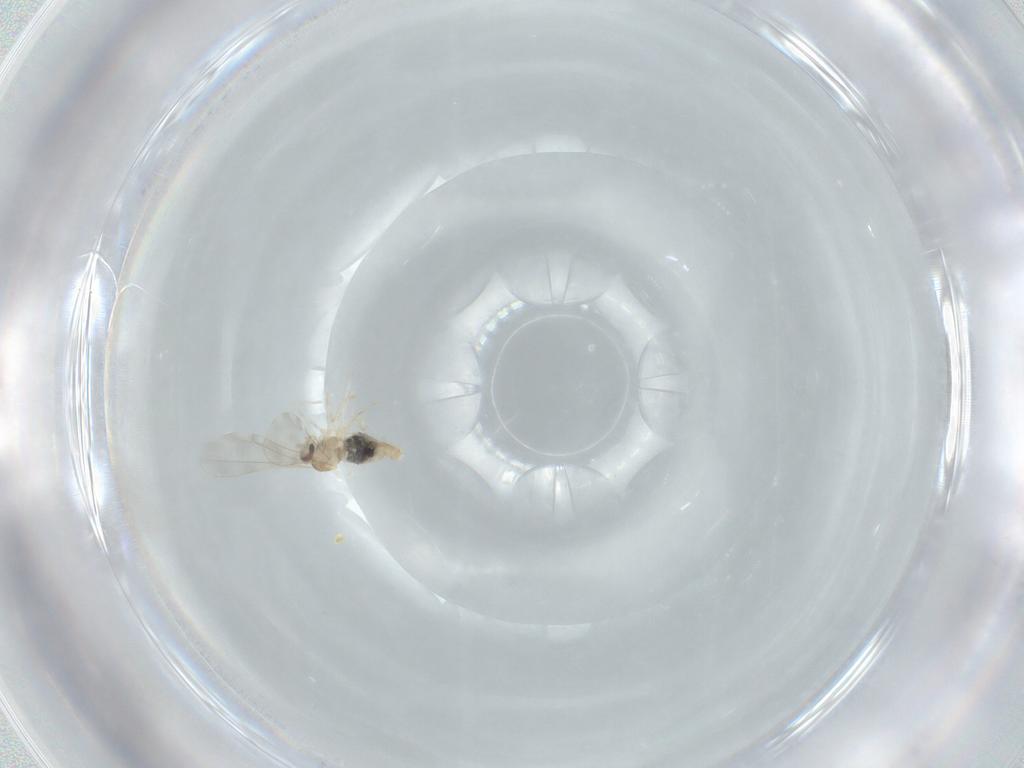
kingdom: Animalia
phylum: Arthropoda
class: Insecta
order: Diptera
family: Cecidomyiidae
